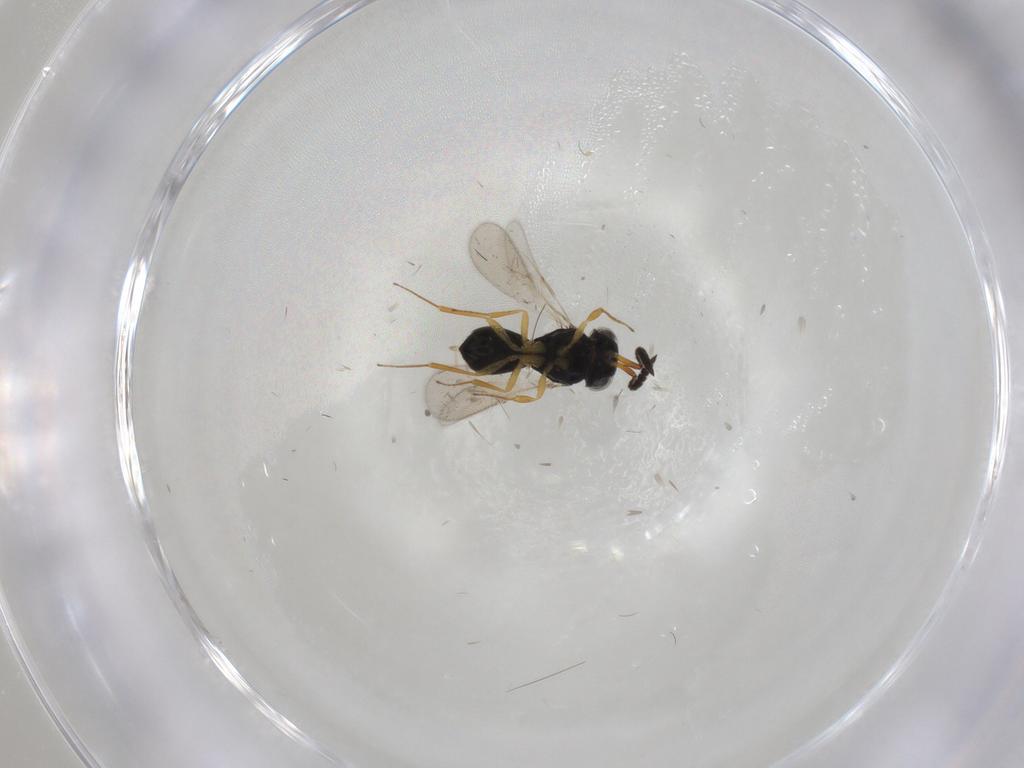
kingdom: Animalia
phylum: Arthropoda
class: Insecta
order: Hymenoptera
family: Scelionidae
